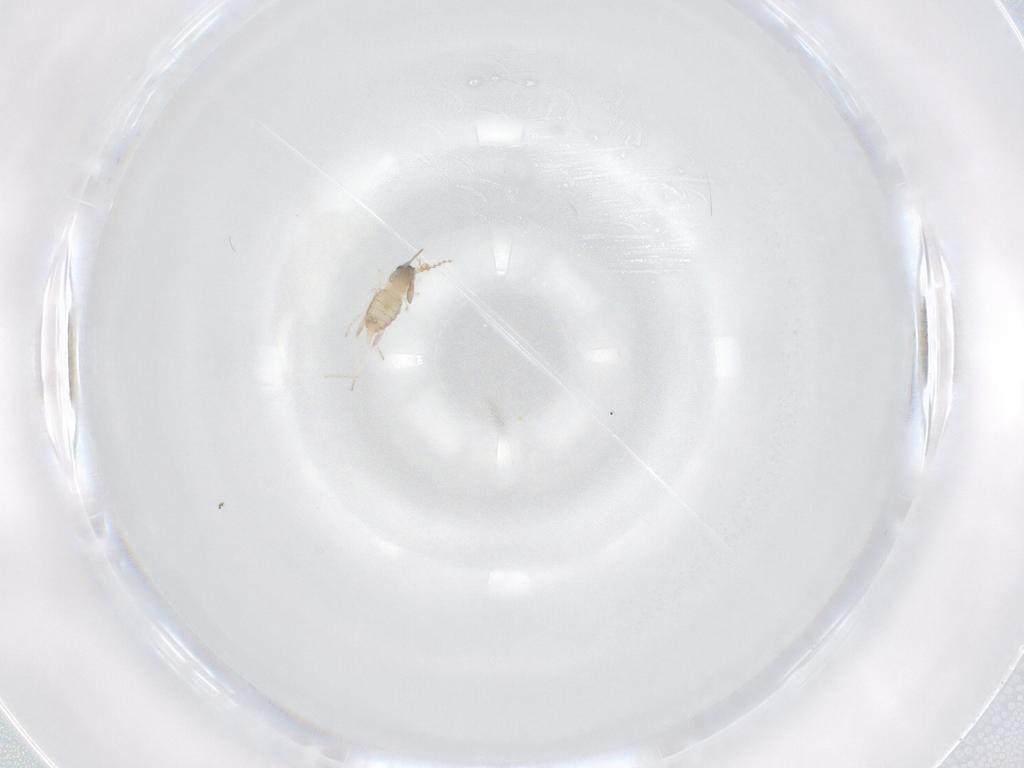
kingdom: Animalia
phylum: Arthropoda
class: Insecta
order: Diptera
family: Cecidomyiidae
